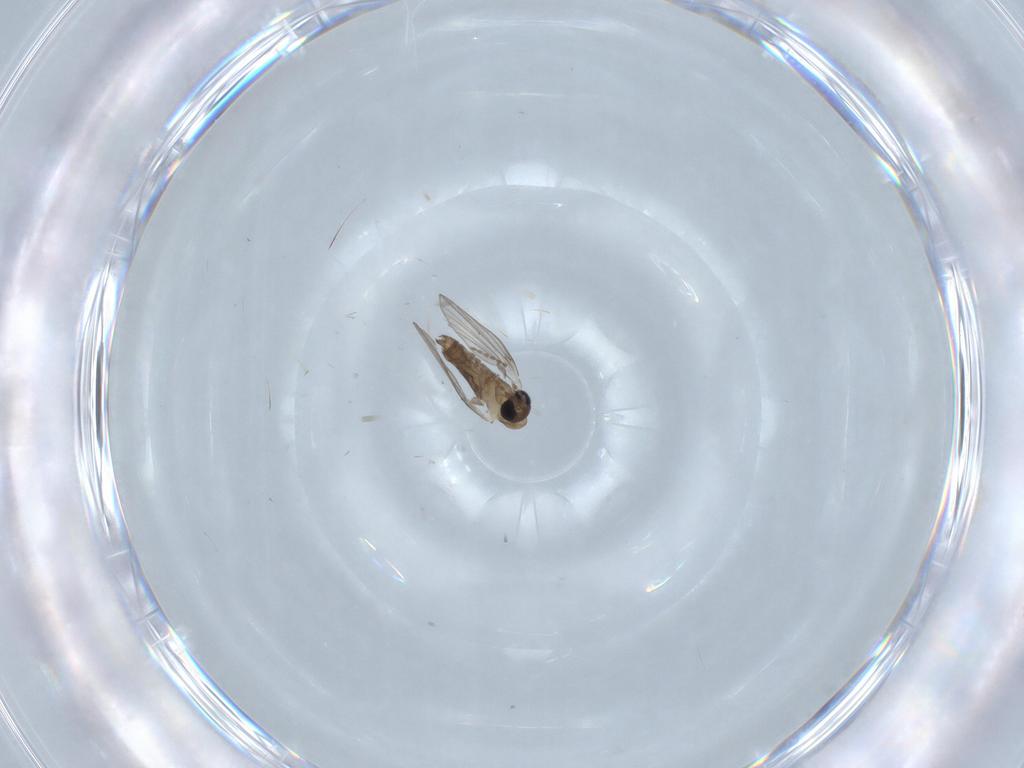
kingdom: Animalia
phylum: Arthropoda
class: Insecta
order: Diptera
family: Psychodidae
